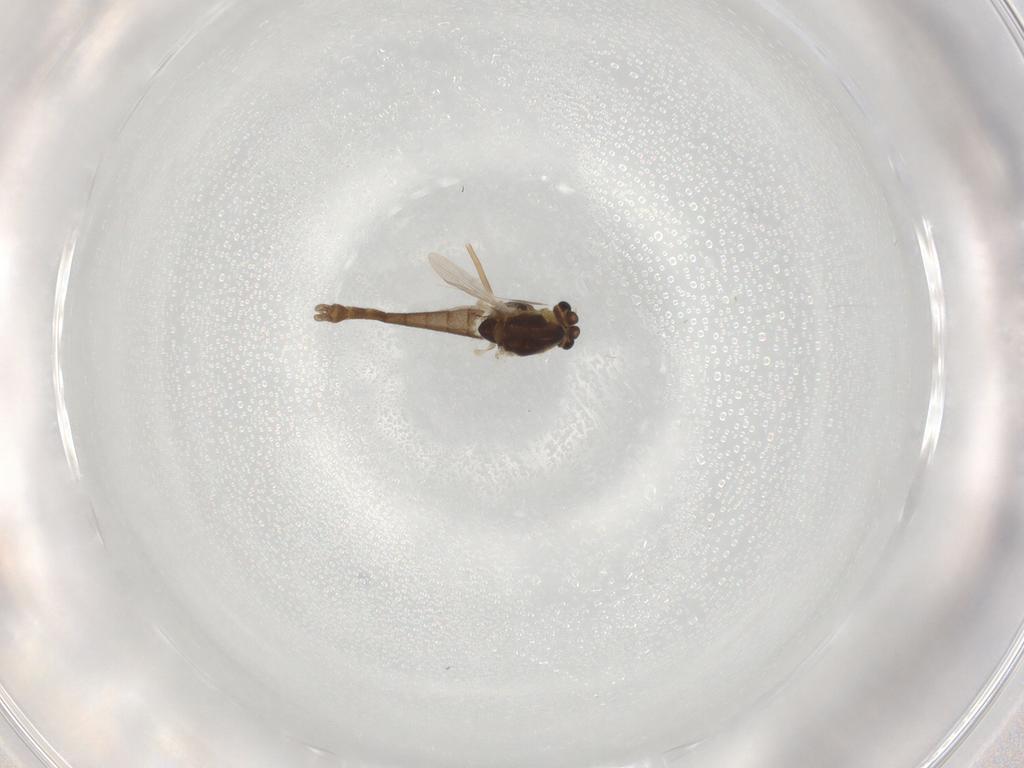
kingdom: Animalia
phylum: Arthropoda
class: Insecta
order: Diptera
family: Chironomidae
